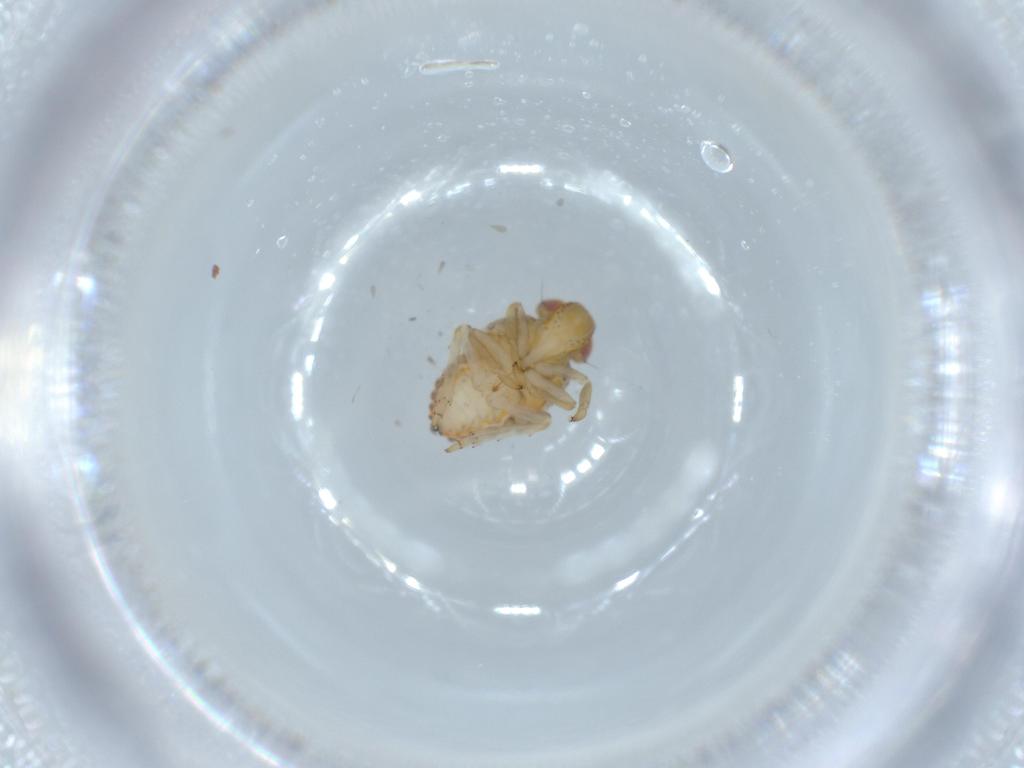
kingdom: Animalia
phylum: Arthropoda
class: Insecta
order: Hemiptera
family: Issidae
